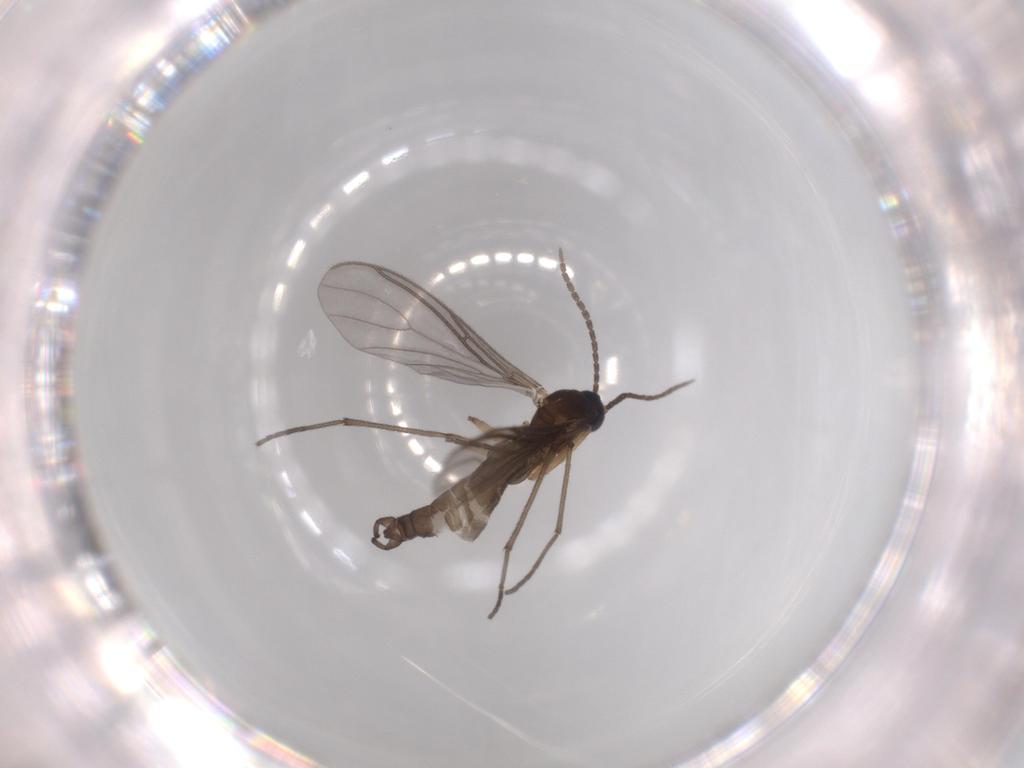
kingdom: Animalia
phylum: Arthropoda
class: Insecta
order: Diptera
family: Sciaridae
